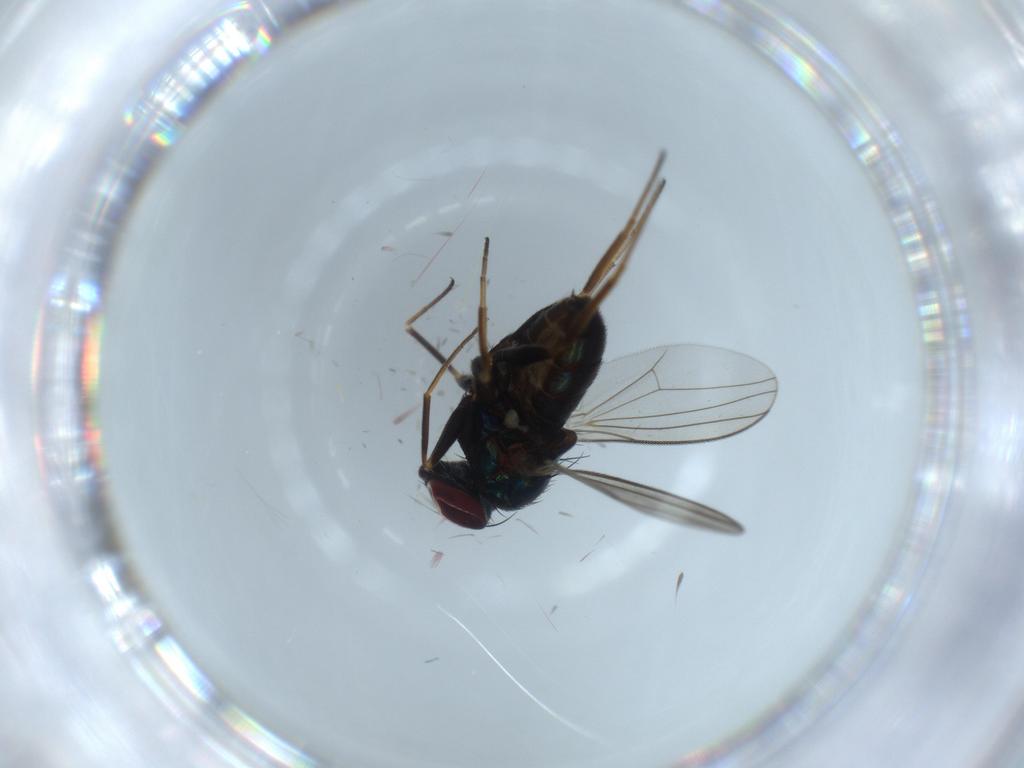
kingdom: Animalia
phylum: Arthropoda
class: Insecta
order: Diptera
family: Dolichopodidae
